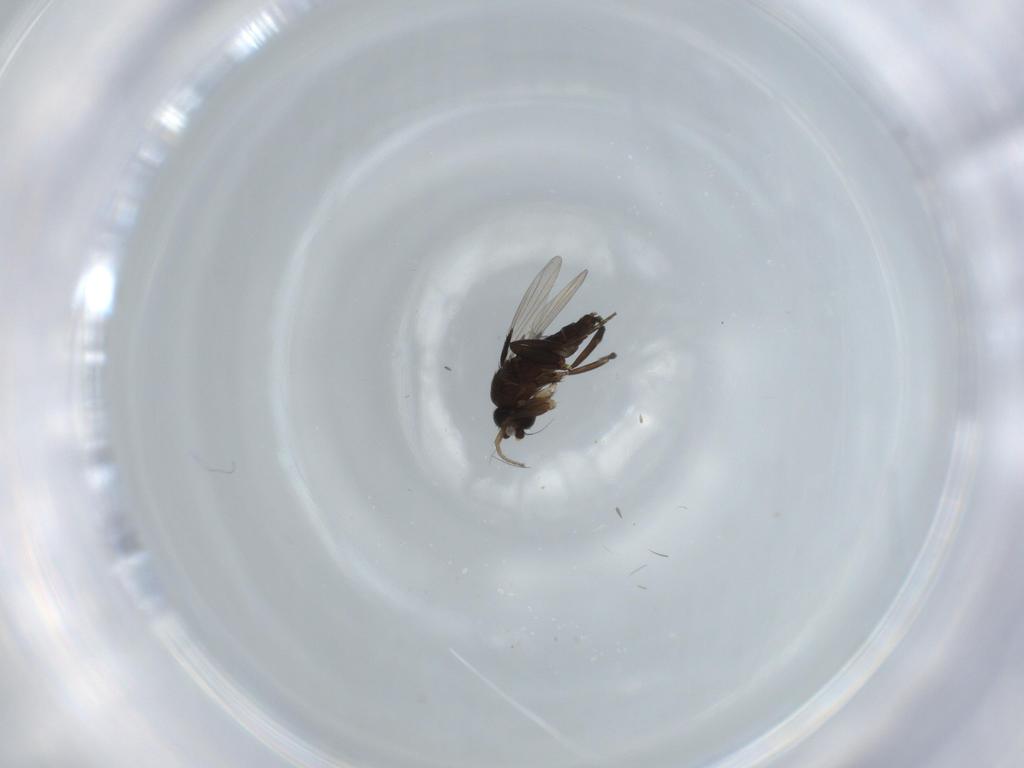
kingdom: Animalia
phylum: Arthropoda
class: Insecta
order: Diptera
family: Phoridae
